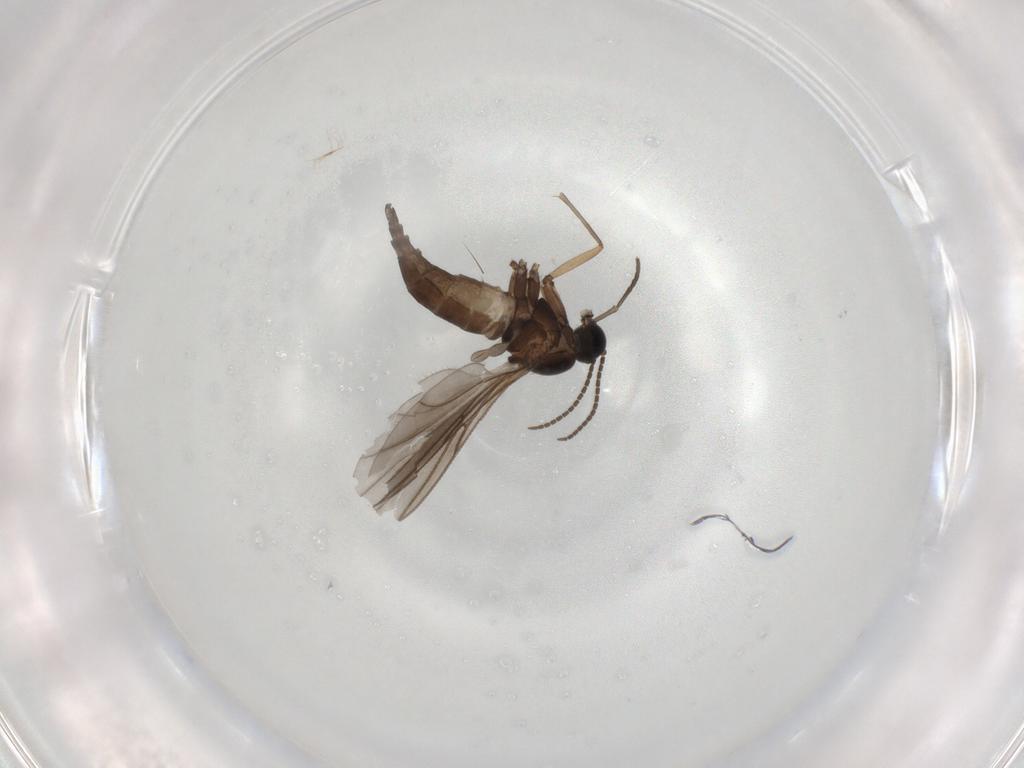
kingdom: Animalia
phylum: Arthropoda
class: Insecta
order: Diptera
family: Sciaridae
